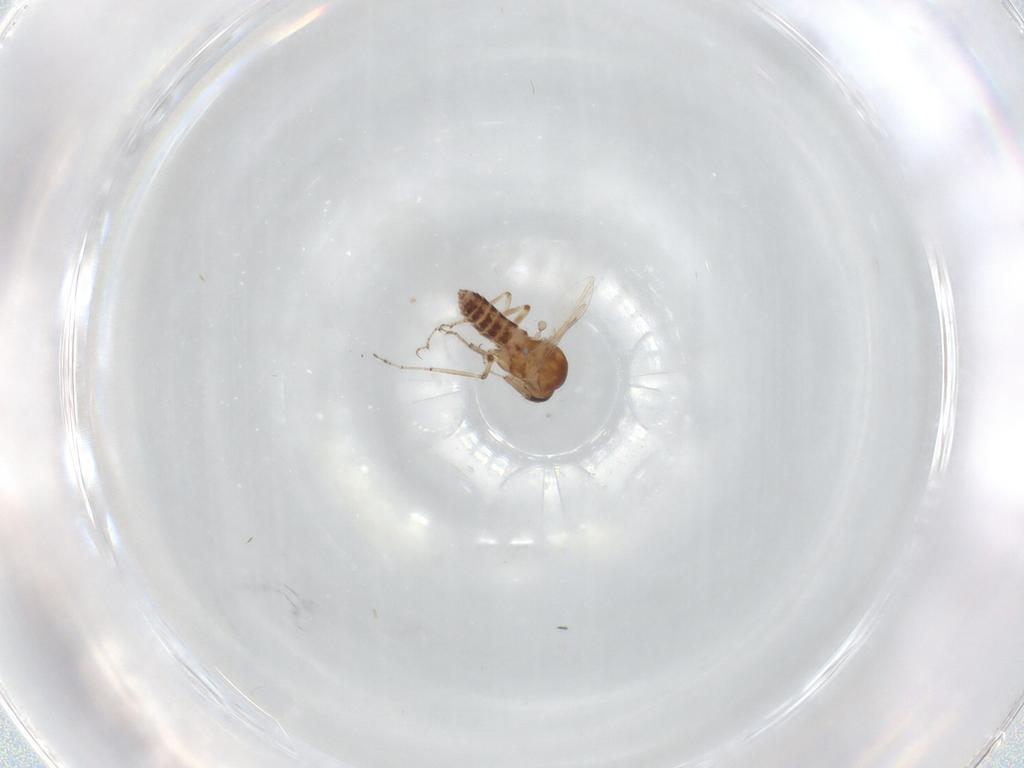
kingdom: Animalia
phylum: Arthropoda
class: Insecta
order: Diptera
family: Ceratopogonidae
